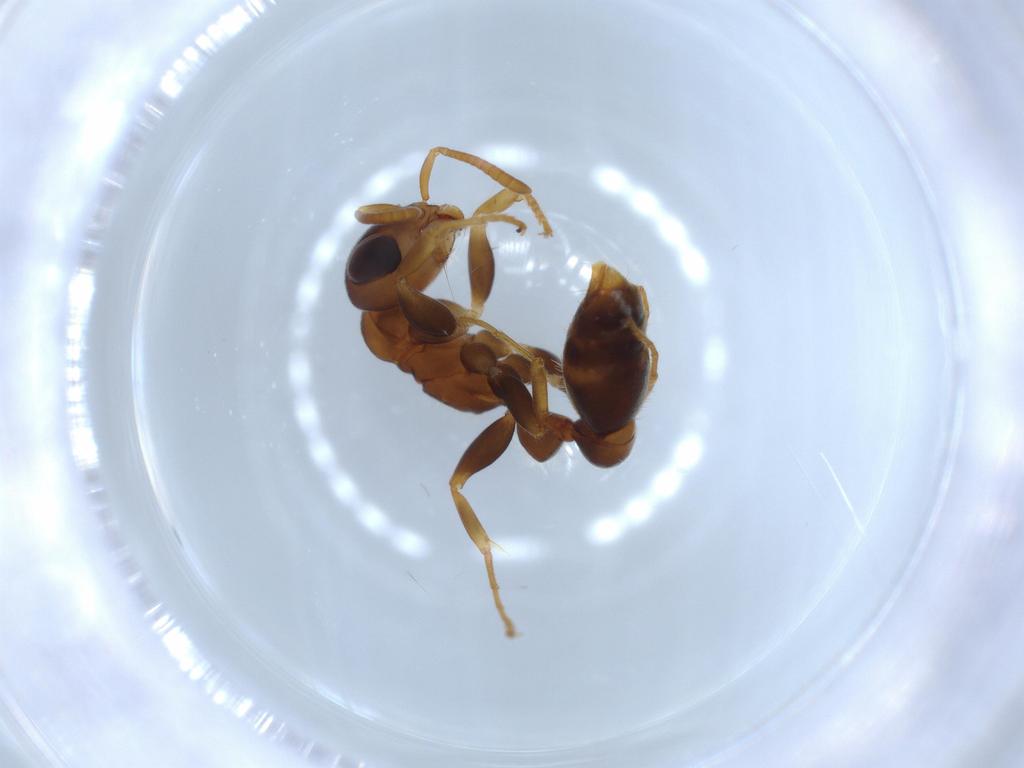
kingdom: Animalia
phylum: Arthropoda
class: Insecta
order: Hymenoptera
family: Formicidae
